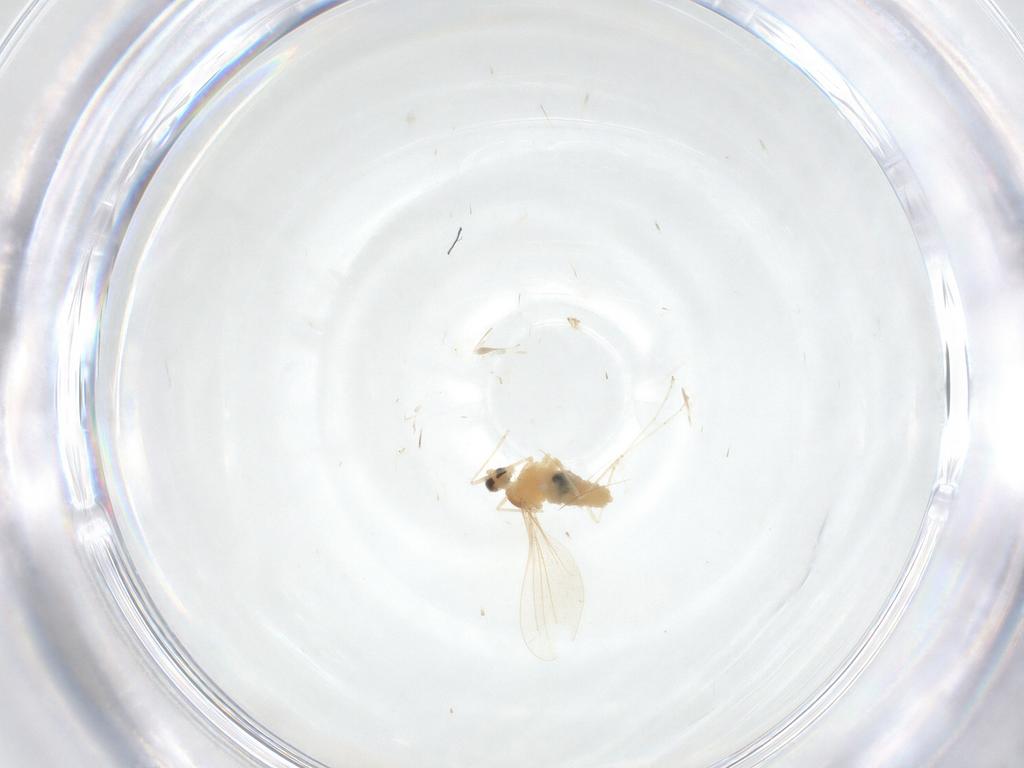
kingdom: Animalia
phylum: Arthropoda
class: Insecta
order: Diptera
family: Cecidomyiidae
